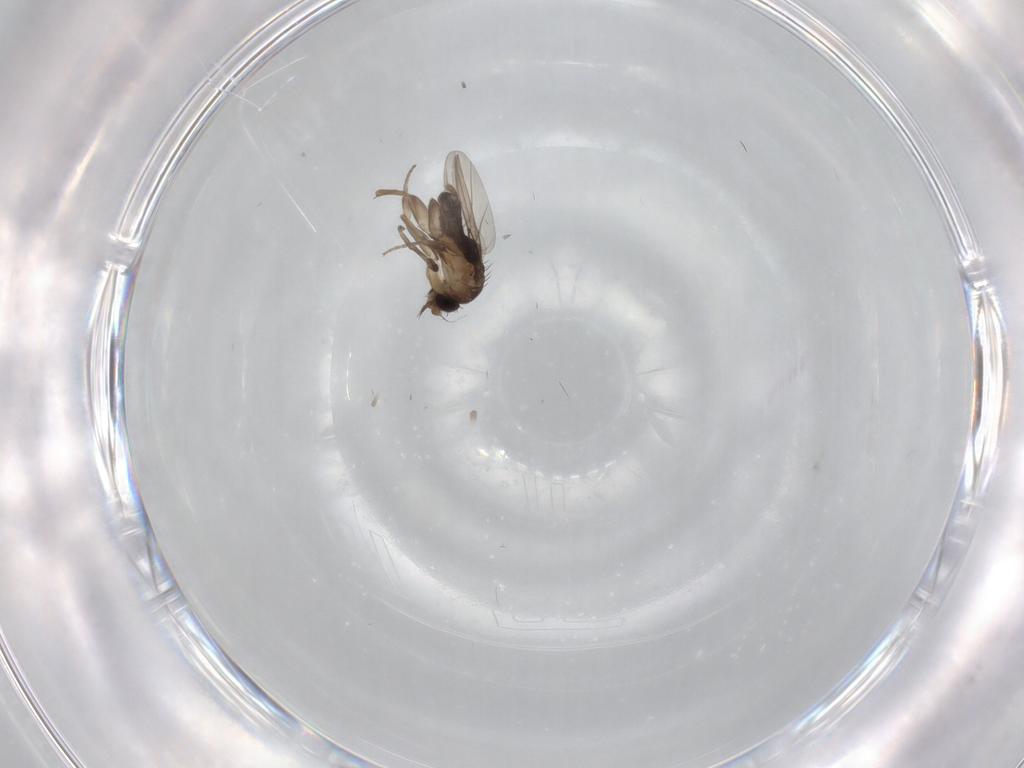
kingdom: Animalia
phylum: Arthropoda
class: Insecta
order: Diptera
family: Phoridae
